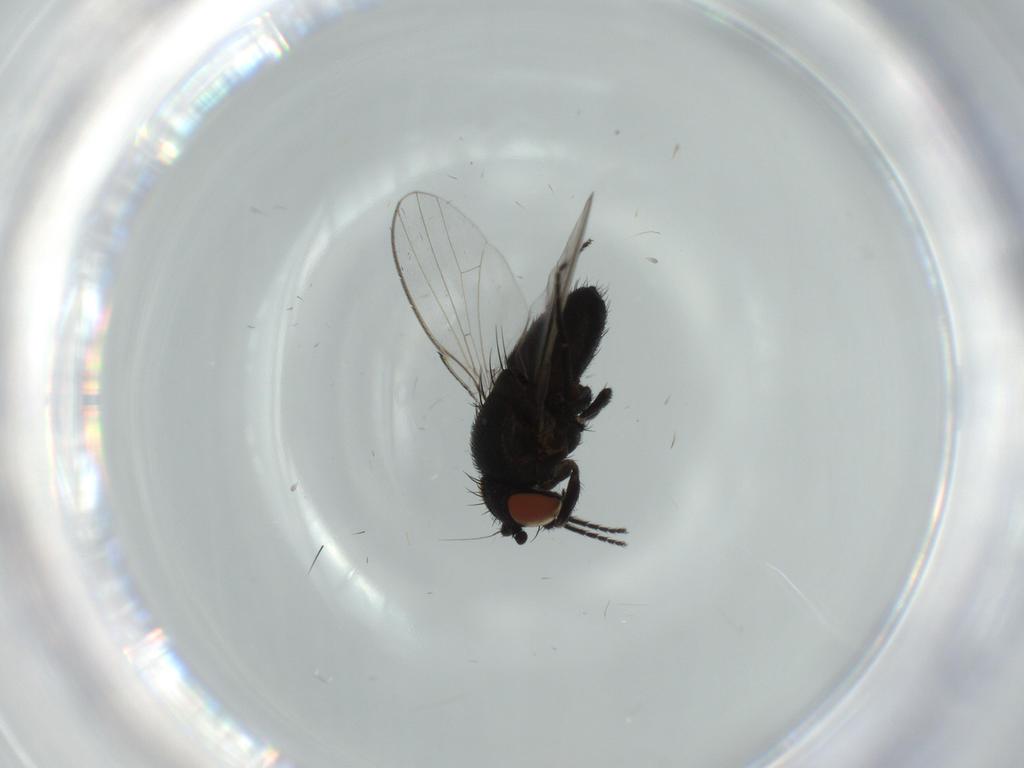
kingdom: Animalia
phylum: Arthropoda
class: Insecta
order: Diptera
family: Milichiidae
